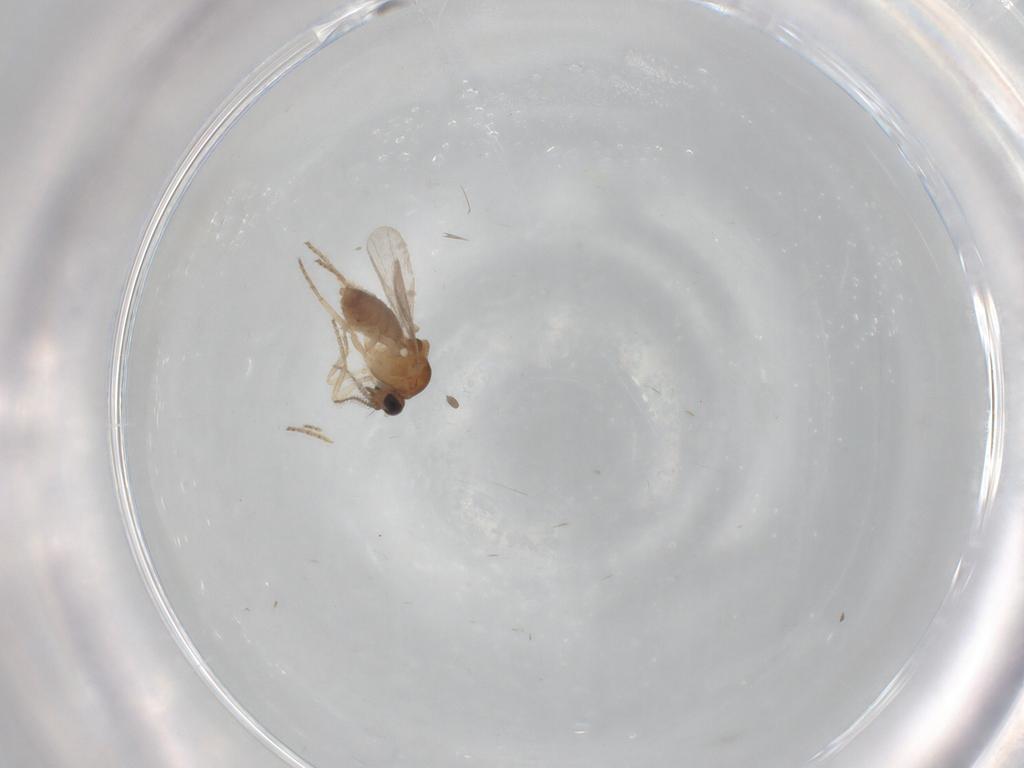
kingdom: Animalia
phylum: Arthropoda
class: Insecta
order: Diptera
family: Ceratopogonidae
